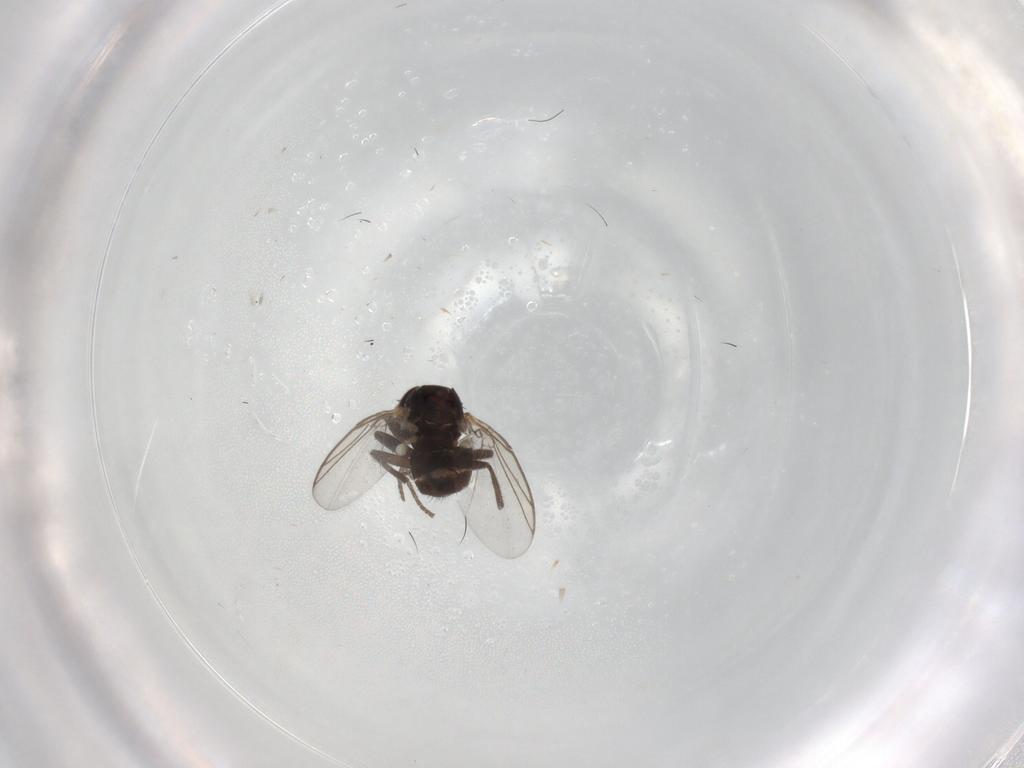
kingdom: Animalia
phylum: Arthropoda
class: Insecta
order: Diptera
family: Agromyzidae
